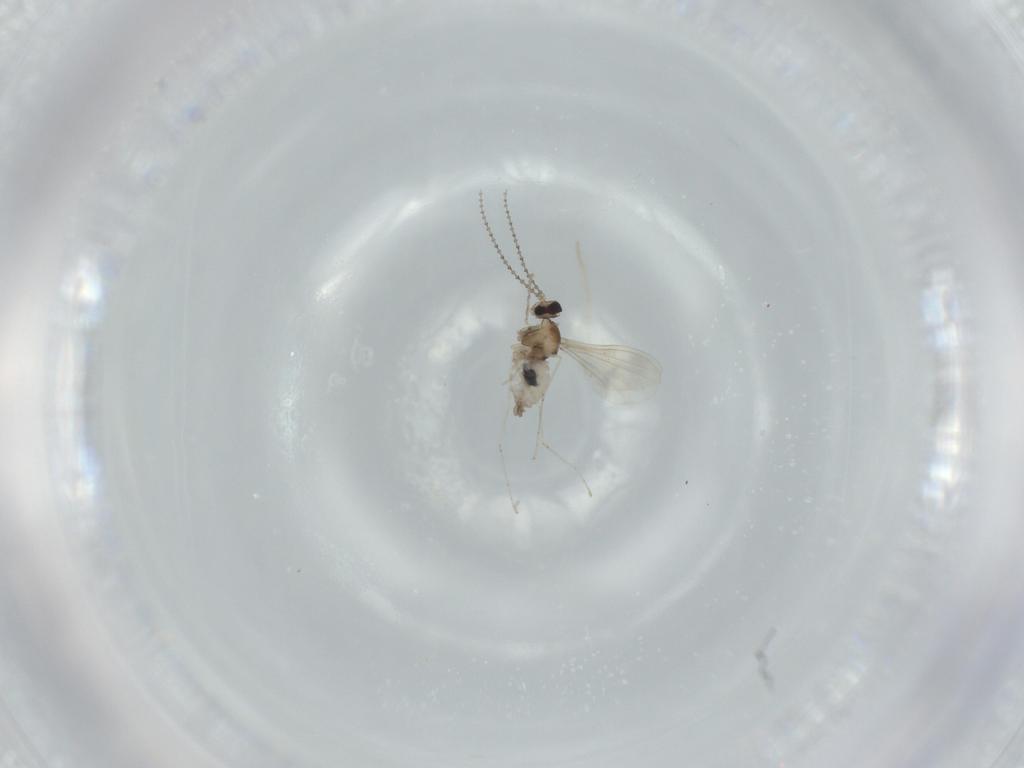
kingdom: Animalia
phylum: Arthropoda
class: Insecta
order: Diptera
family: Cecidomyiidae
